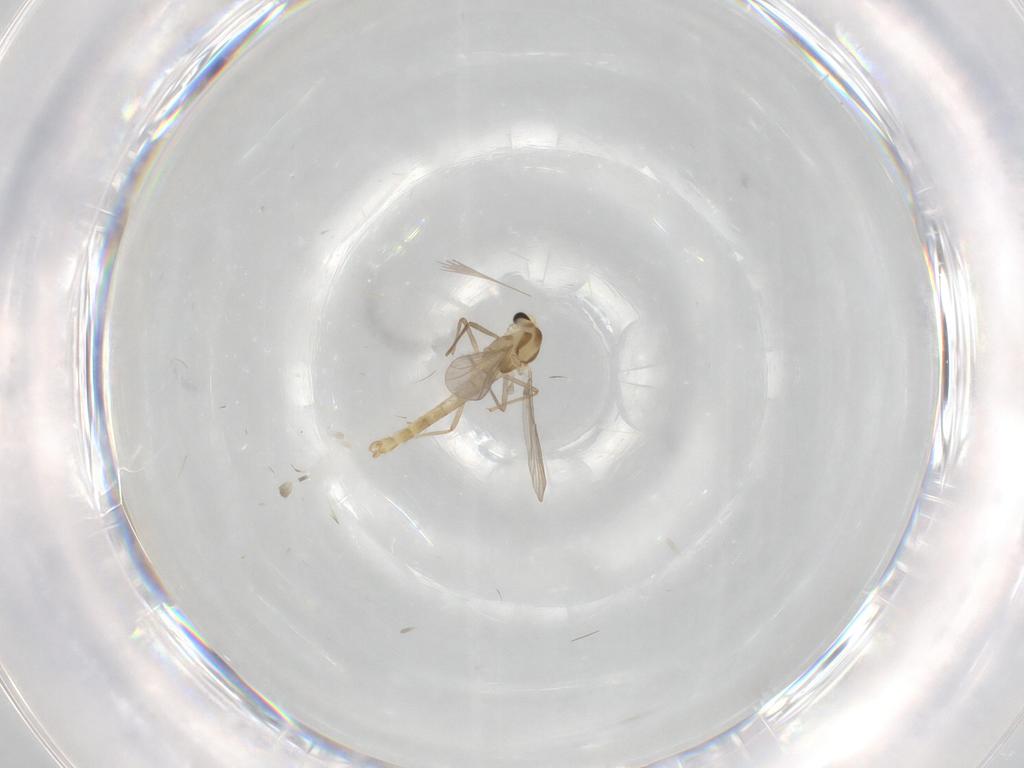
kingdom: Animalia
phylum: Arthropoda
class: Insecta
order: Diptera
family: Chironomidae
